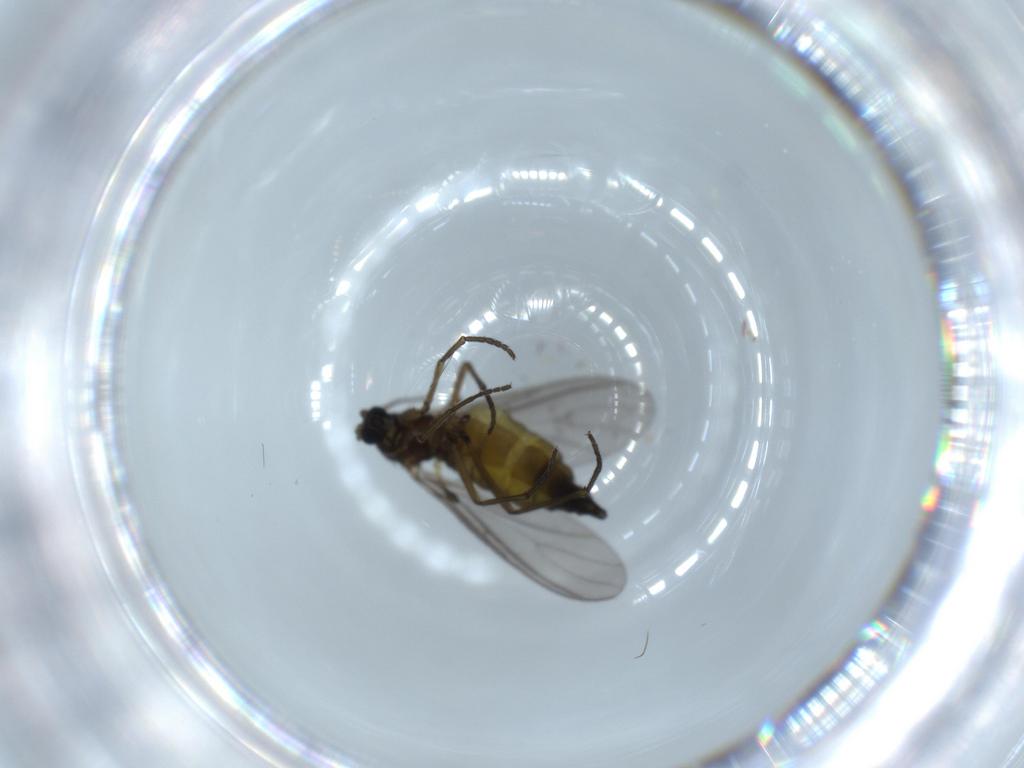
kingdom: Animalia
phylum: Arthropoda
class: Insecta
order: Diptera
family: Sciaridae
